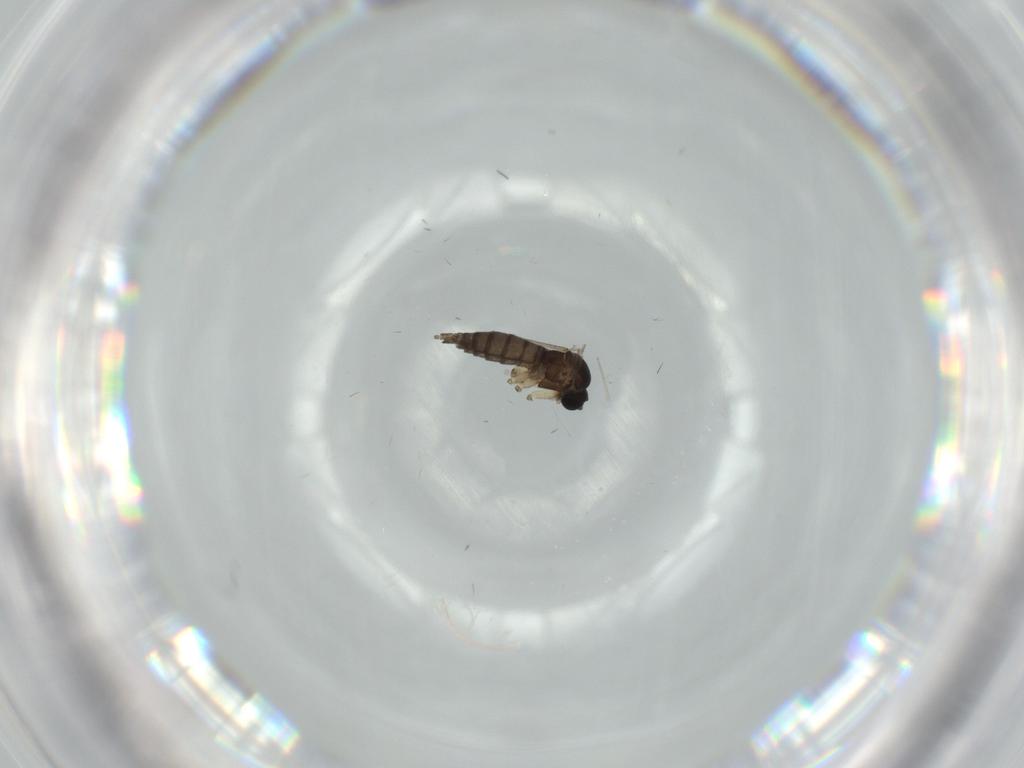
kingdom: Animalia
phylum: Arthropoda
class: Insecta
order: Diptera
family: Sciaridae
